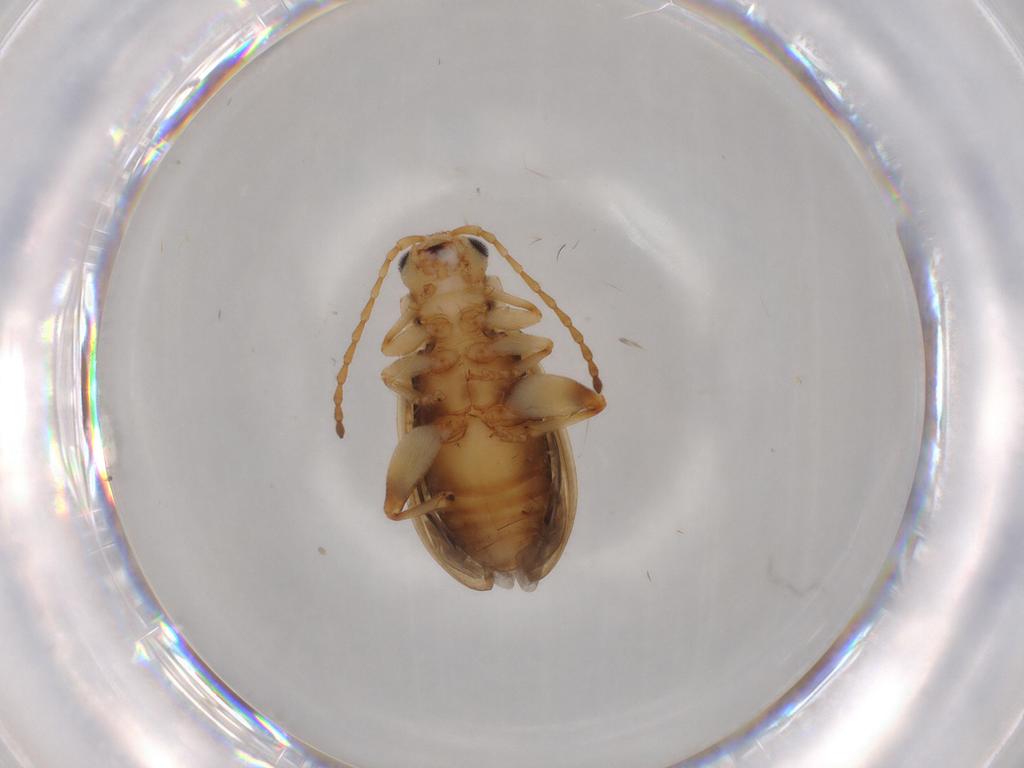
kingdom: Animalia
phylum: Arthropoda
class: Insecta
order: Coleoptera
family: Chrysomelidae
